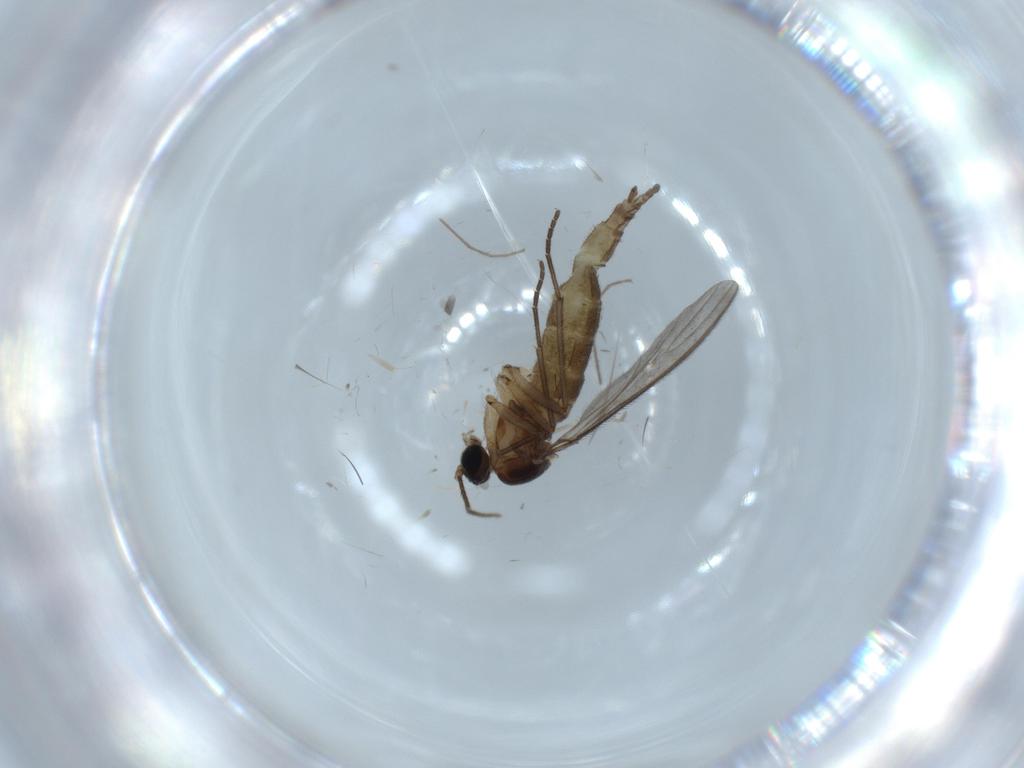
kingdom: Animalia
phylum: Arthropoda
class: Insecta
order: Diptera
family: Sciaridae
